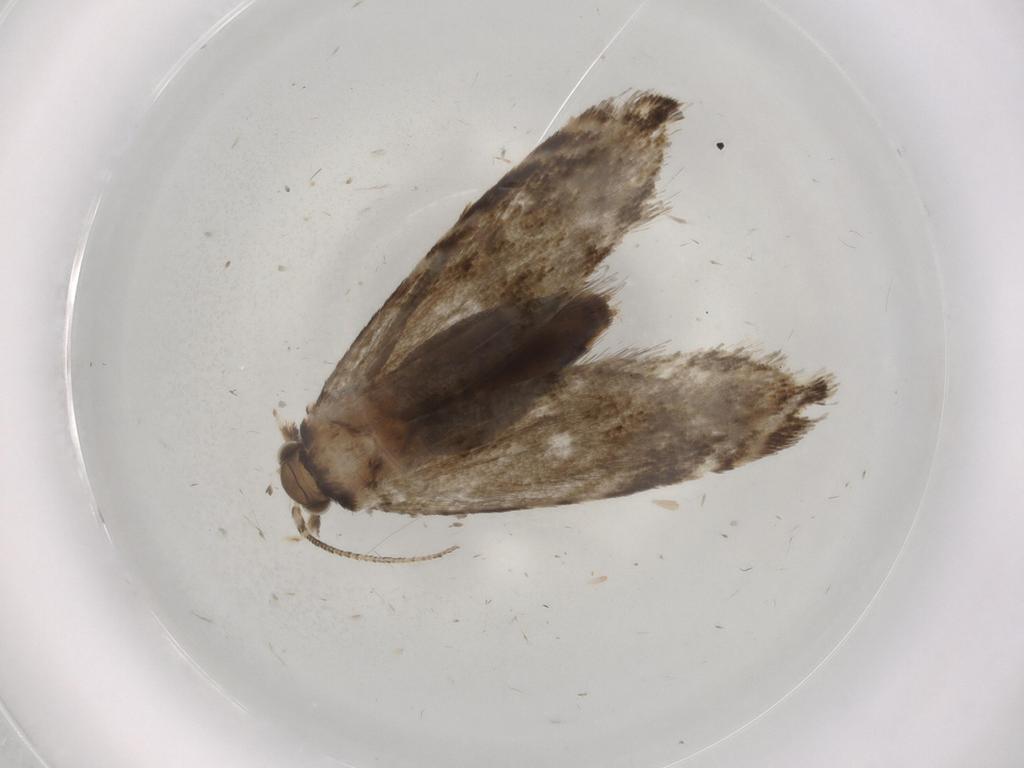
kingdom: Animalia
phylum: Arthropoda
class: Insecta
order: Lepidoptera
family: Tineidae
